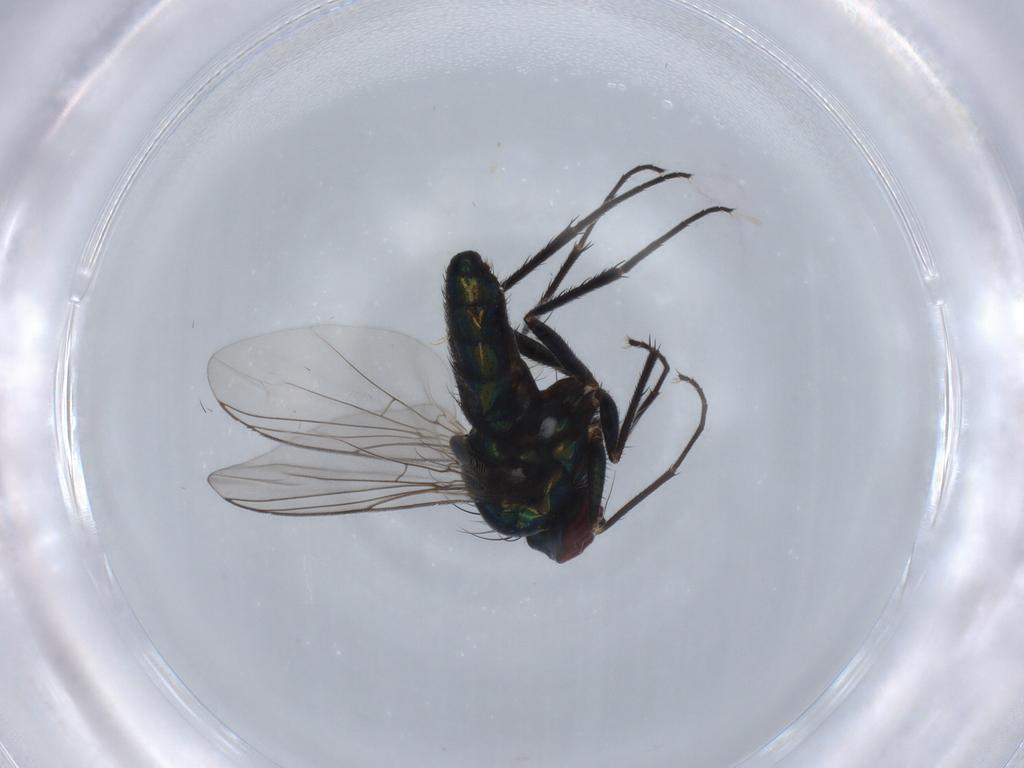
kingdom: Animalia
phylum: Arthropoda
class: Insecta
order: Diptera
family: Dolichopodidae
